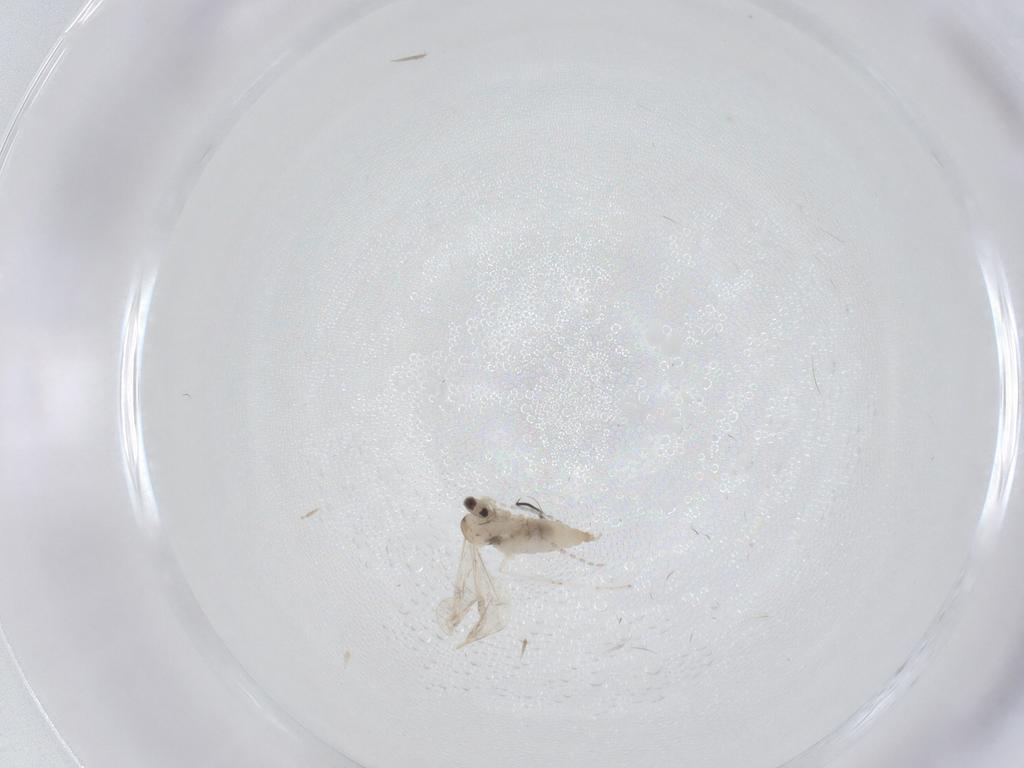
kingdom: Animalia
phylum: Arthropoda
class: Insecta
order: Diptera
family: Cecidomyiidae
